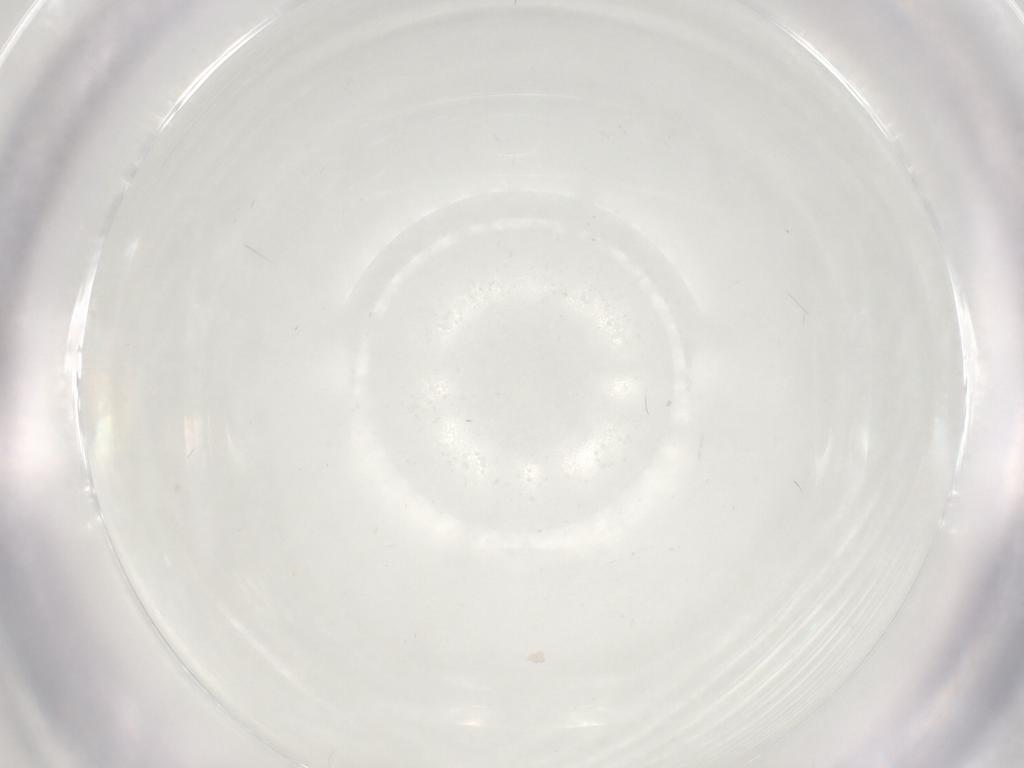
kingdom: Animalia
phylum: Arthropoda
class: Insecta
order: Diptera
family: Cecidomyiidae
